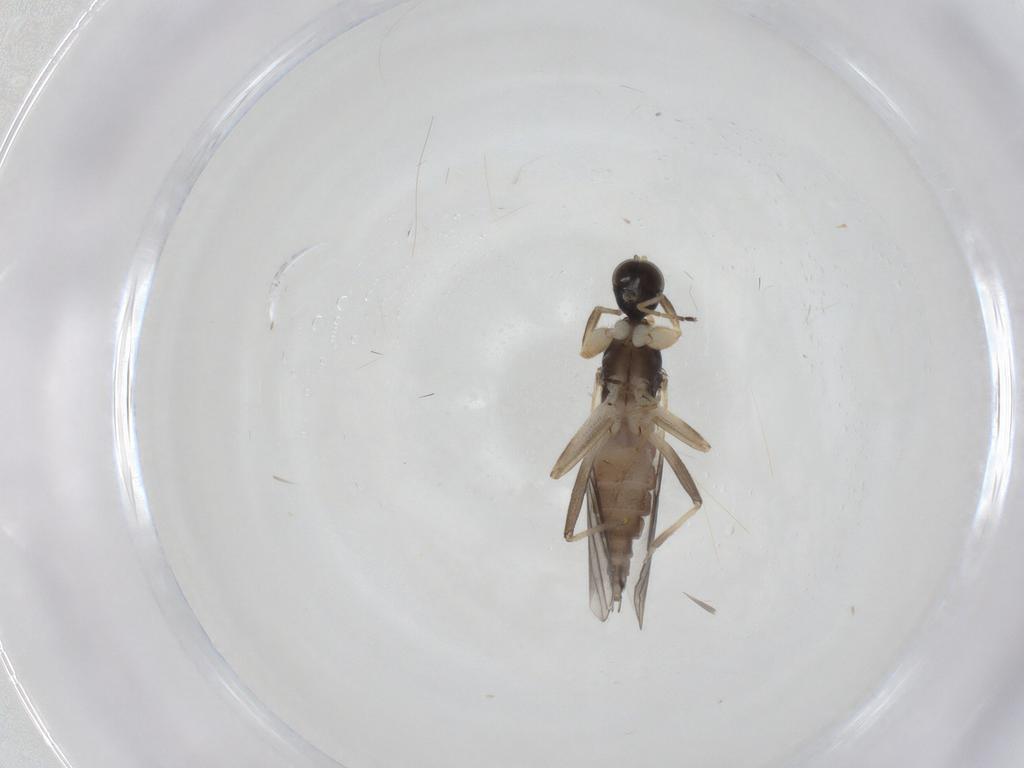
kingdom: Animalia
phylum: Arthropoda
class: Insecta
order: Diptera
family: Cecidomyiidae
